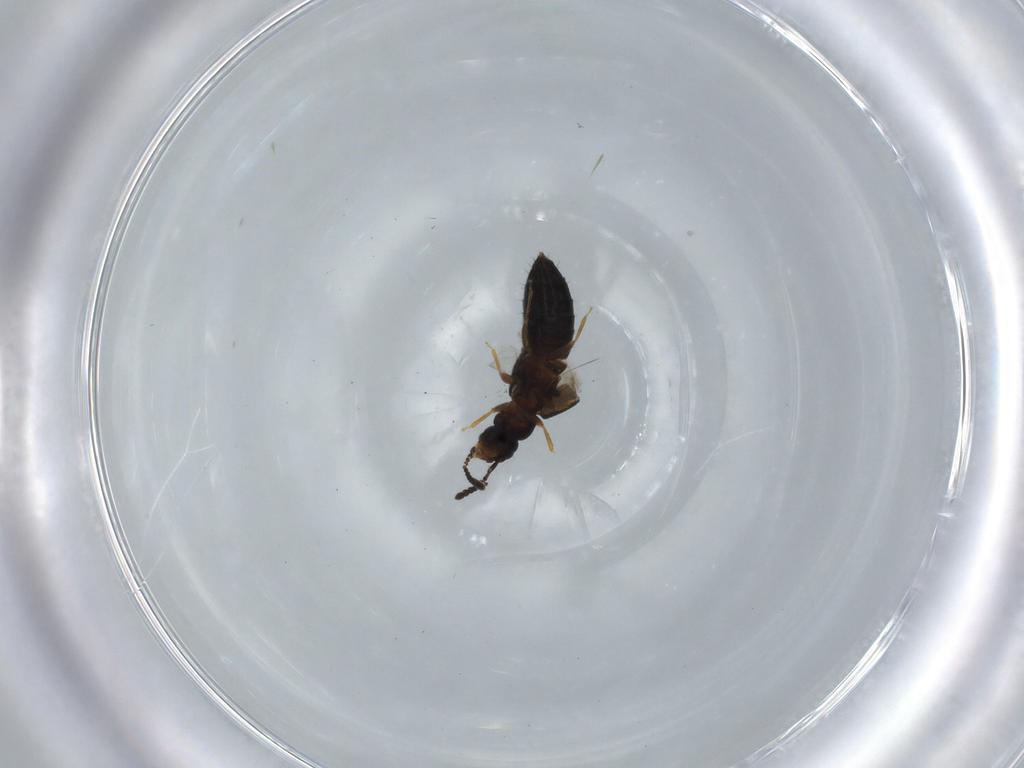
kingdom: Animalia
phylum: Arthropoda
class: Insecta
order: Coleoptera
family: Staphylinidae
